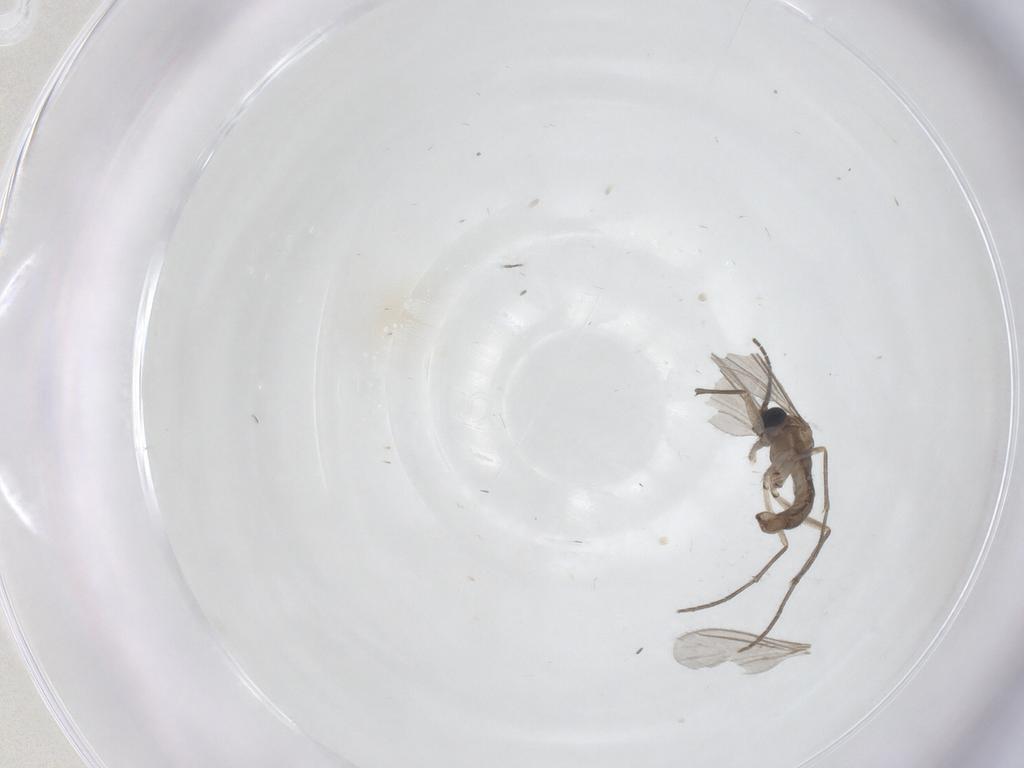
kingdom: Animalia
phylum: Arthropoda
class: Insecta
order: Diptera
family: Sciaridae
